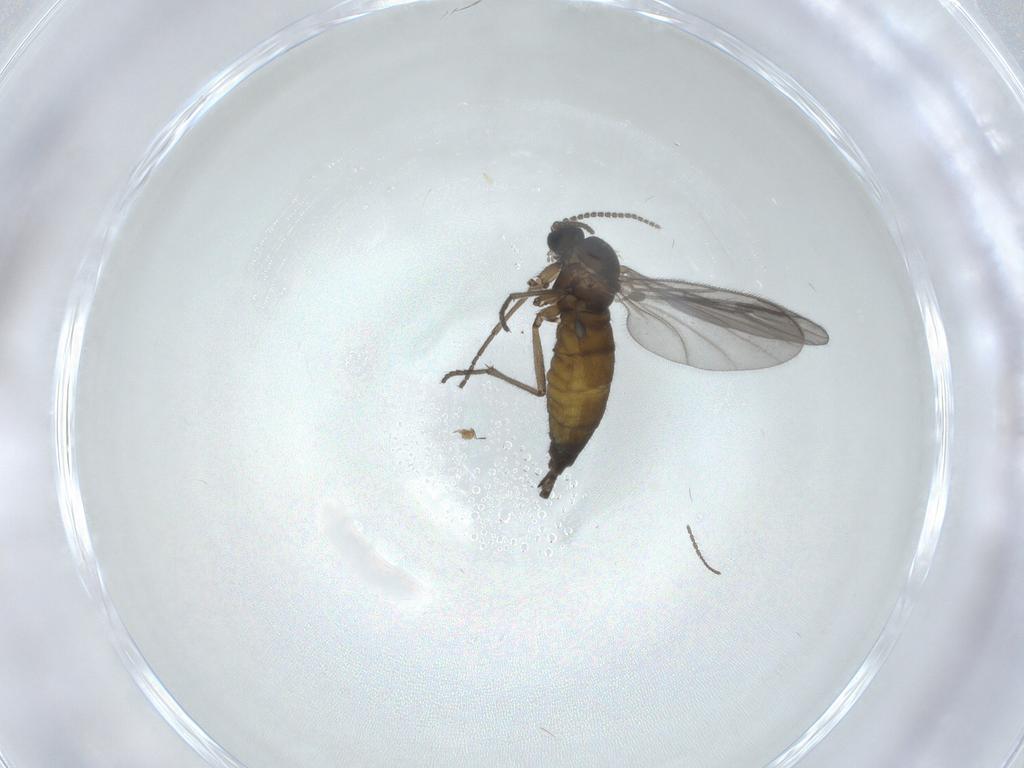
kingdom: Animalia
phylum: Arthropoda
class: Insecta
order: Diptera
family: Sciaridae
